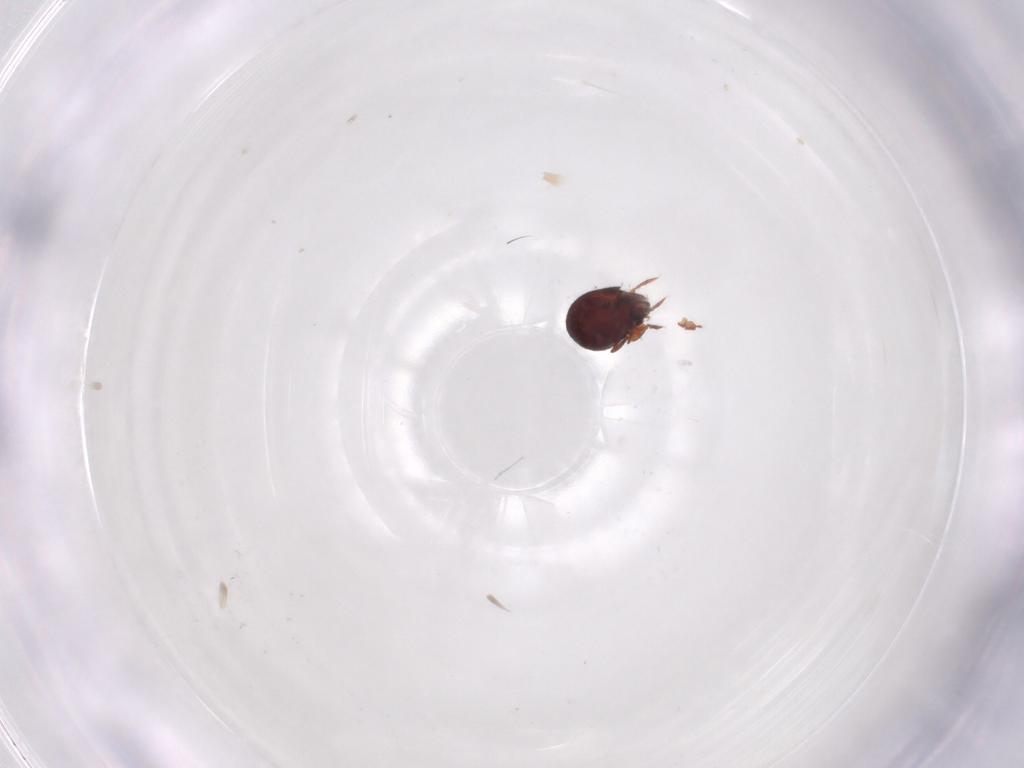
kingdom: Animalia
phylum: Arthropoda
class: Arachnida
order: Sarcoptiformes
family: Humerobatidae
